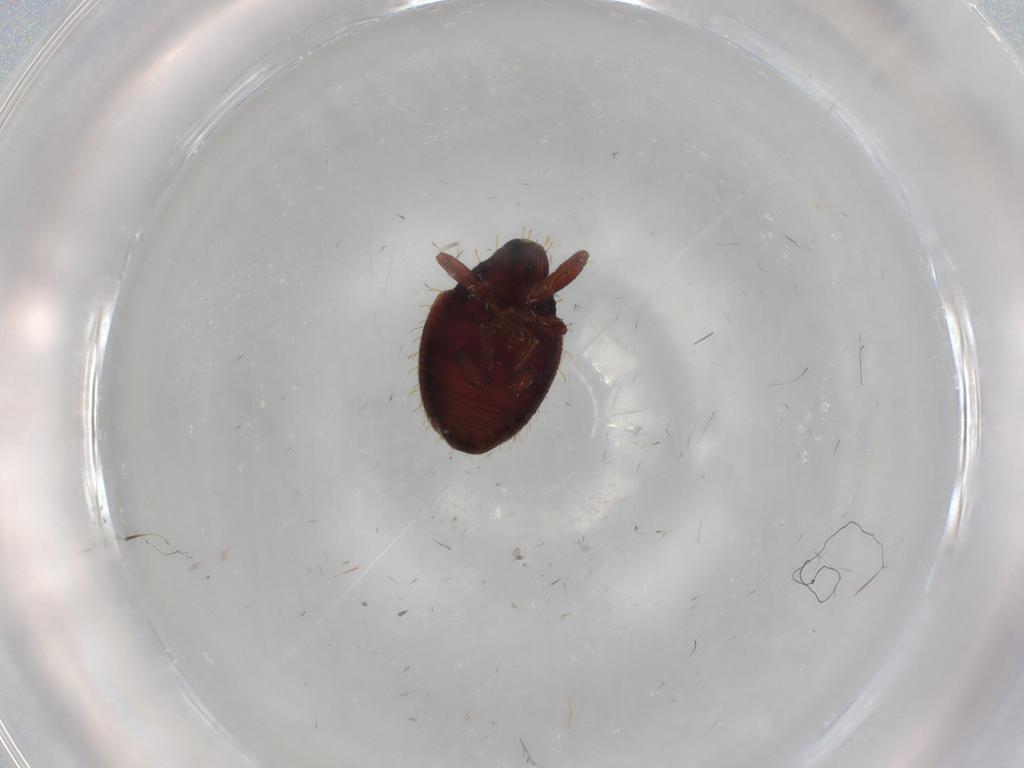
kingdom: Animalia
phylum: Arthropoda
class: Insecta
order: Coleoptera
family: Curculionidae
